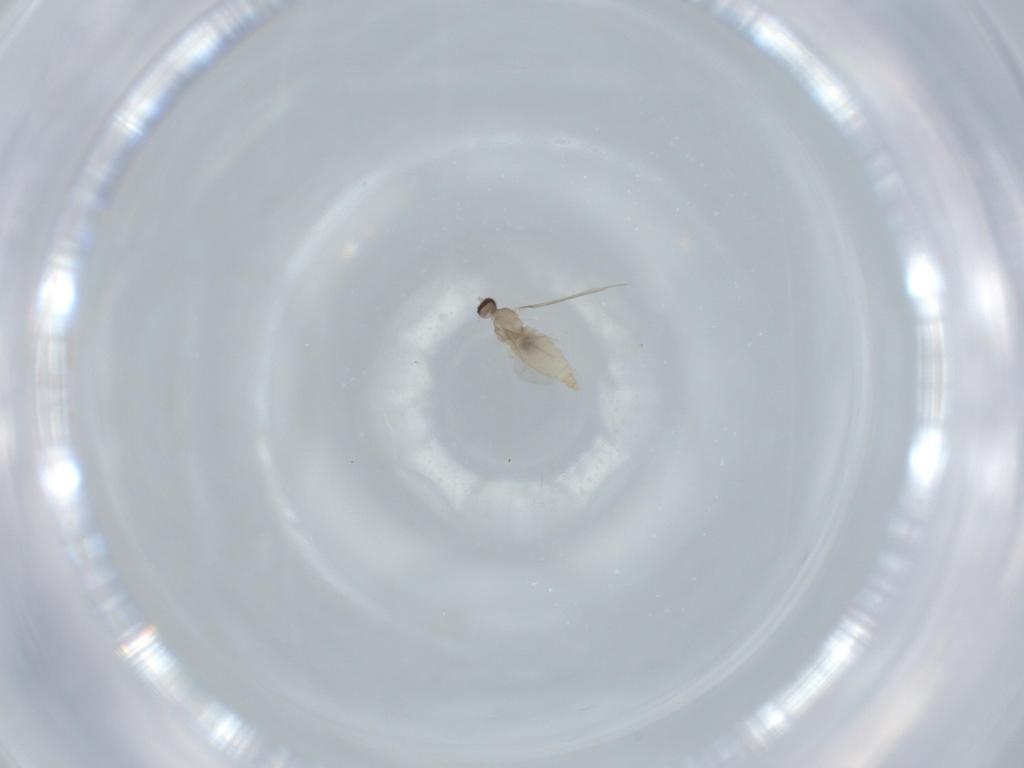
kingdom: Animalia
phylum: Arthropoda
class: Insecta
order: Diptera
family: Cecidomyiidae
